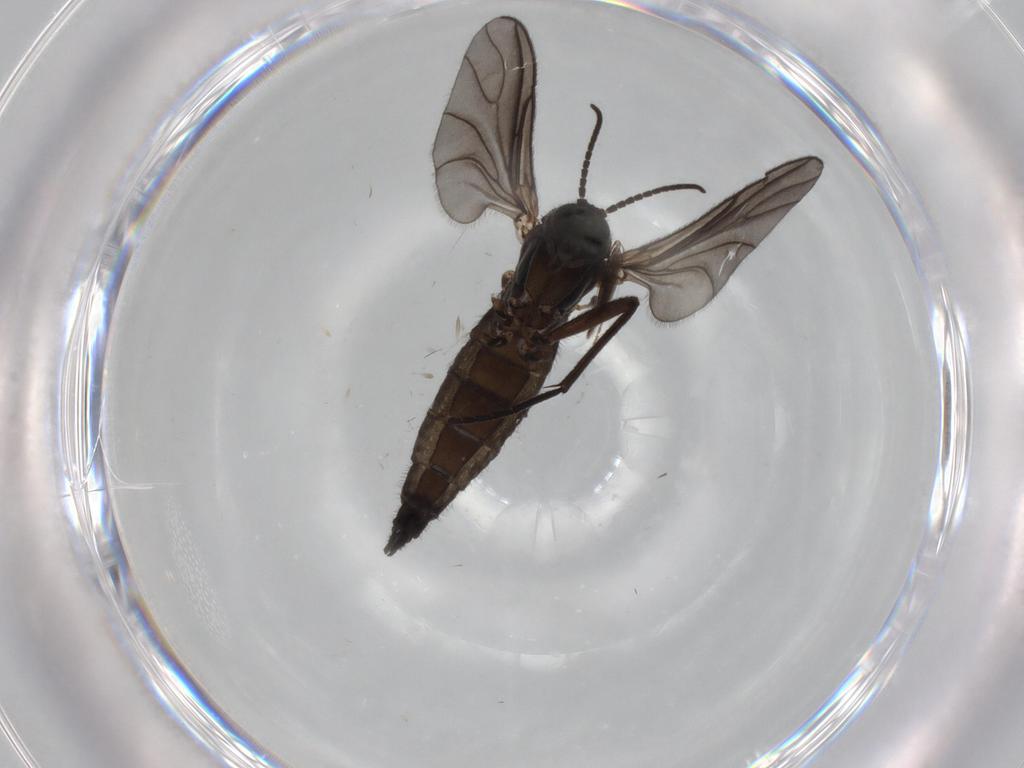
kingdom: Animalia
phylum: Arthropoda
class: Insecta
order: Diptera
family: Sciaridae
